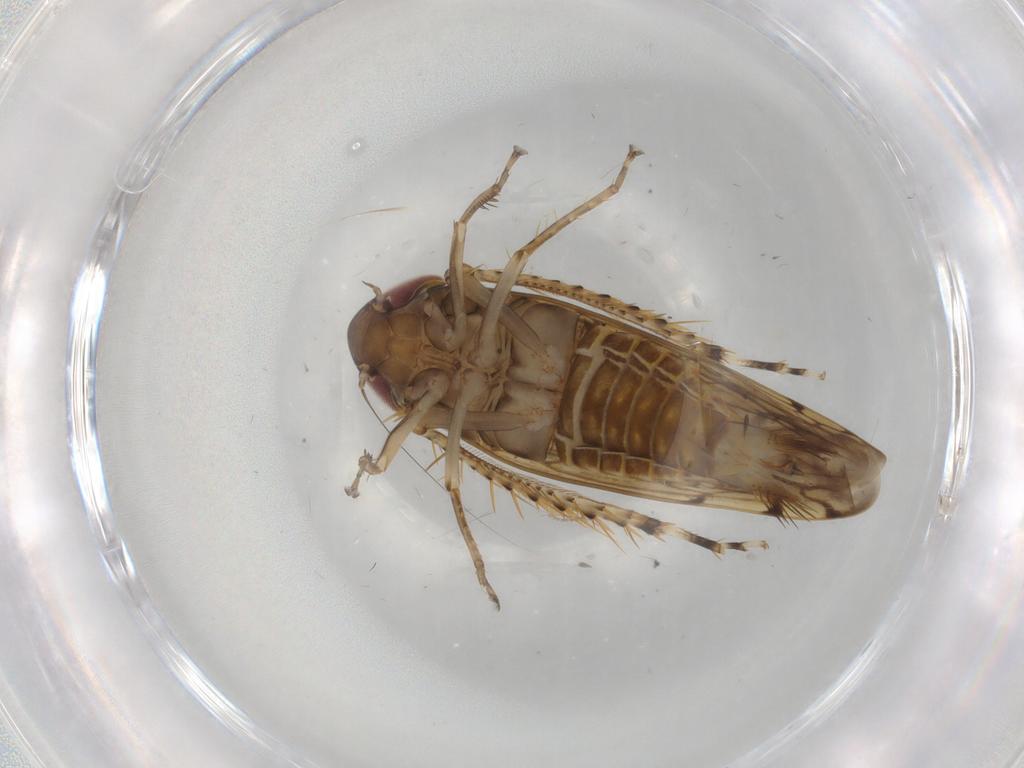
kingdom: Animalia
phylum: Arthropoda
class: Insecta
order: Hemiptera
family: Cicadellidae
